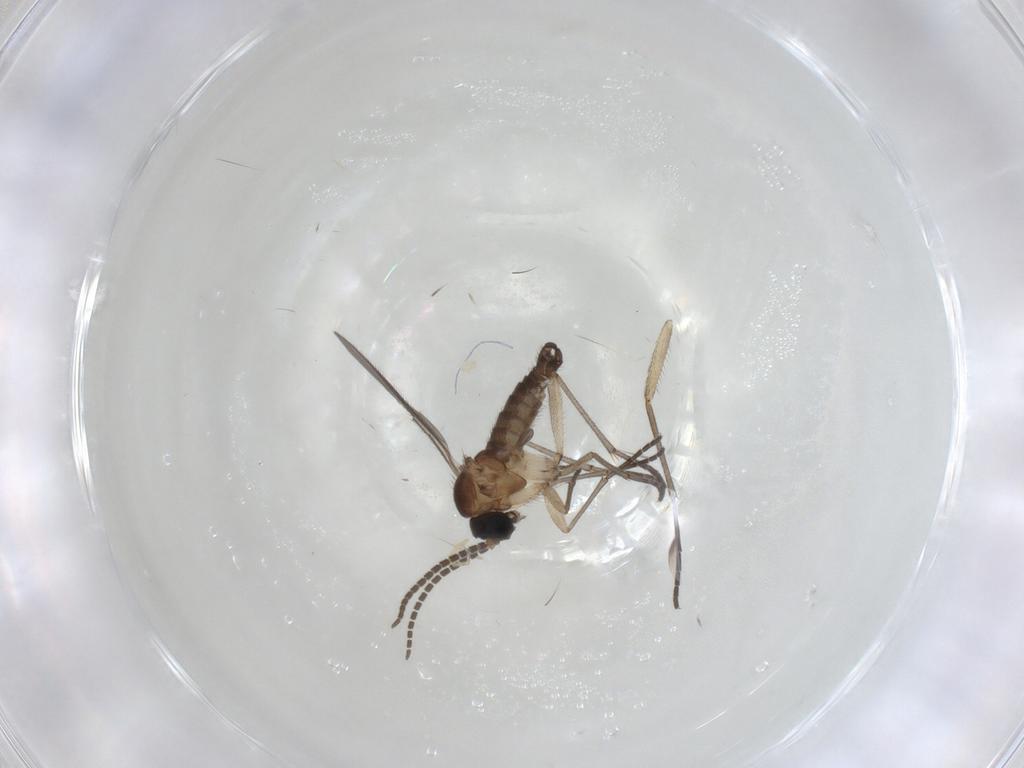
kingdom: Animalia
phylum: Arthropoda
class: Insecta
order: Diptera
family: Sciaridae
